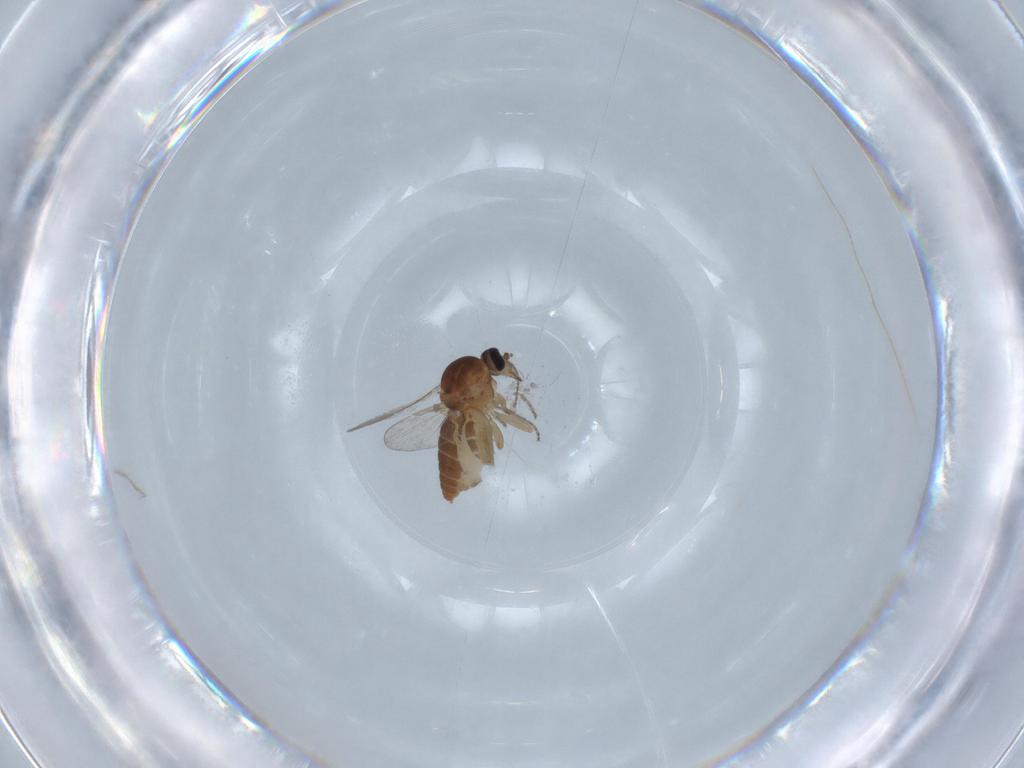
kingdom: Animalia
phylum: Arthropoda
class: Insecta
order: Diptera
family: Ceratopogonidae
